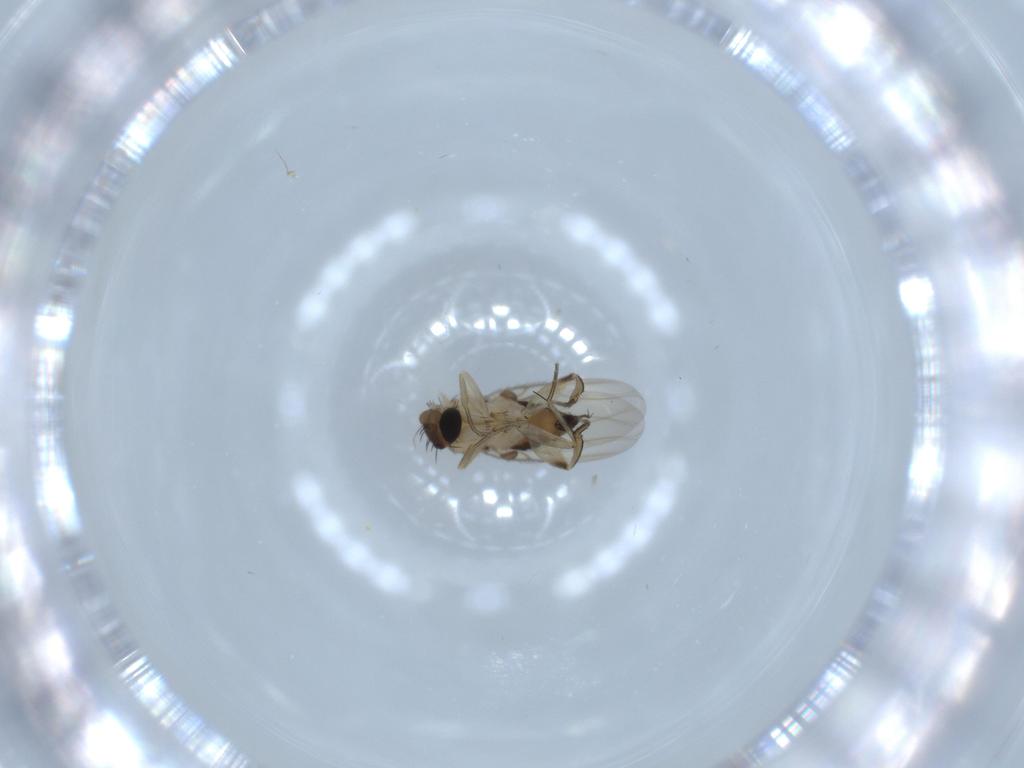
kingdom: Animalia
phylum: Arthropoda
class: Insecta
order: Diptera
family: Phoridae
